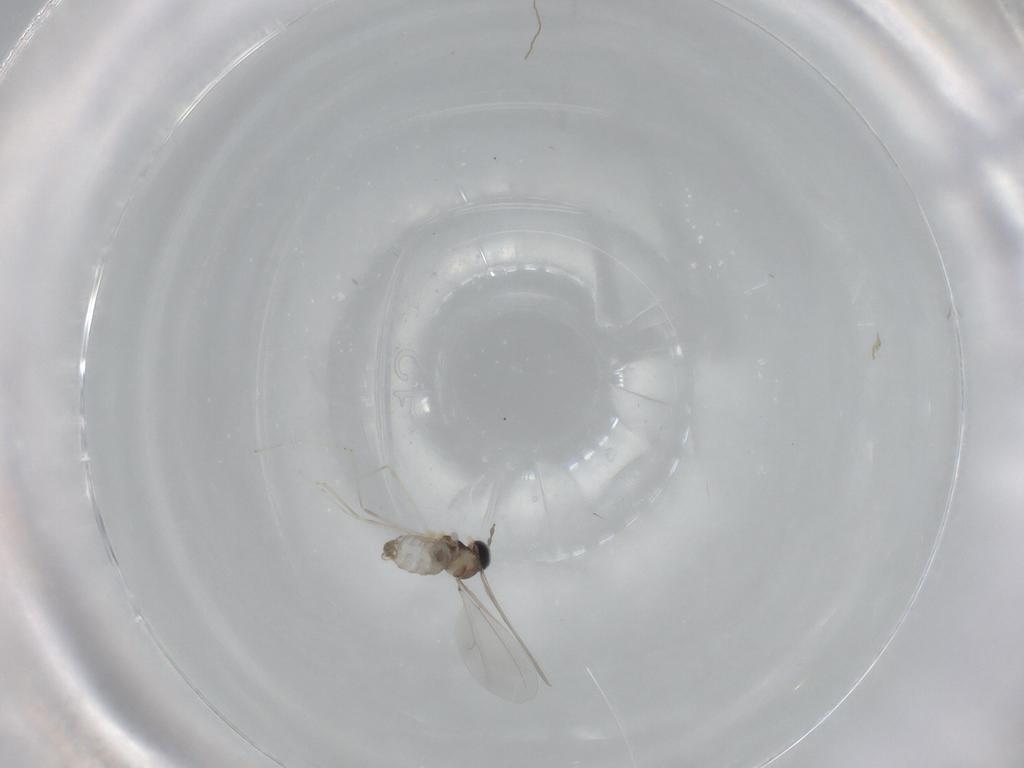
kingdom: Animalia
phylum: Arthropoda
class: Insecta
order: Diptera
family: Cecidomyiidae
